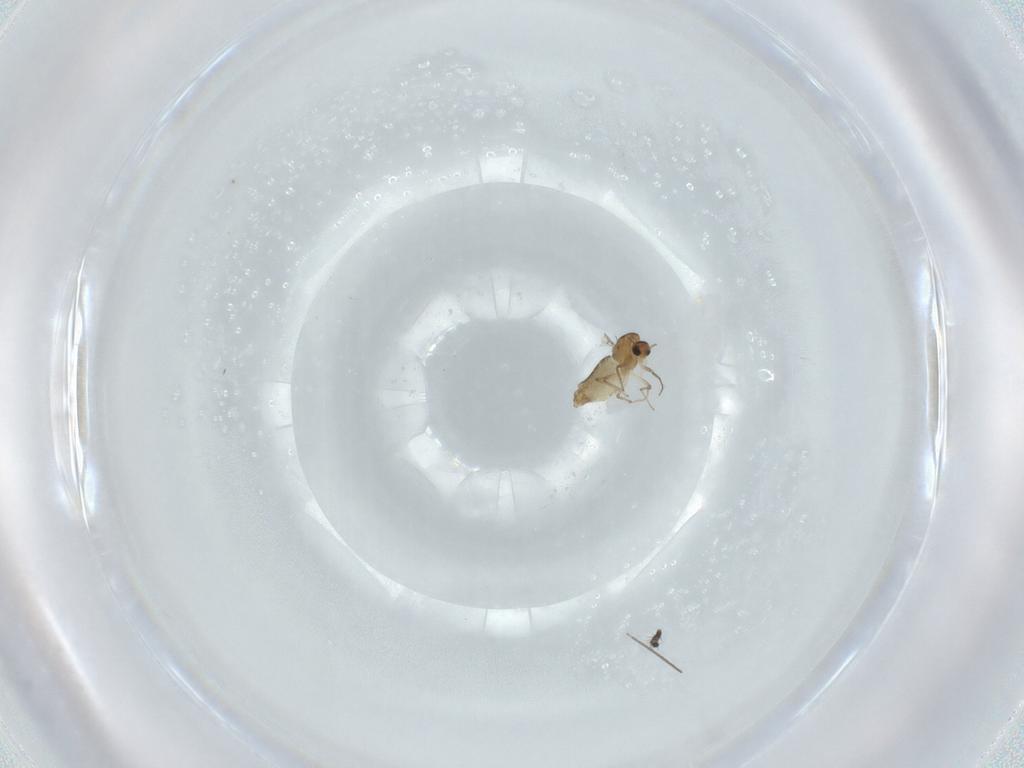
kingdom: Animalia
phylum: Arthropoda
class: Insecta
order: Diptera
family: Limoniidae
